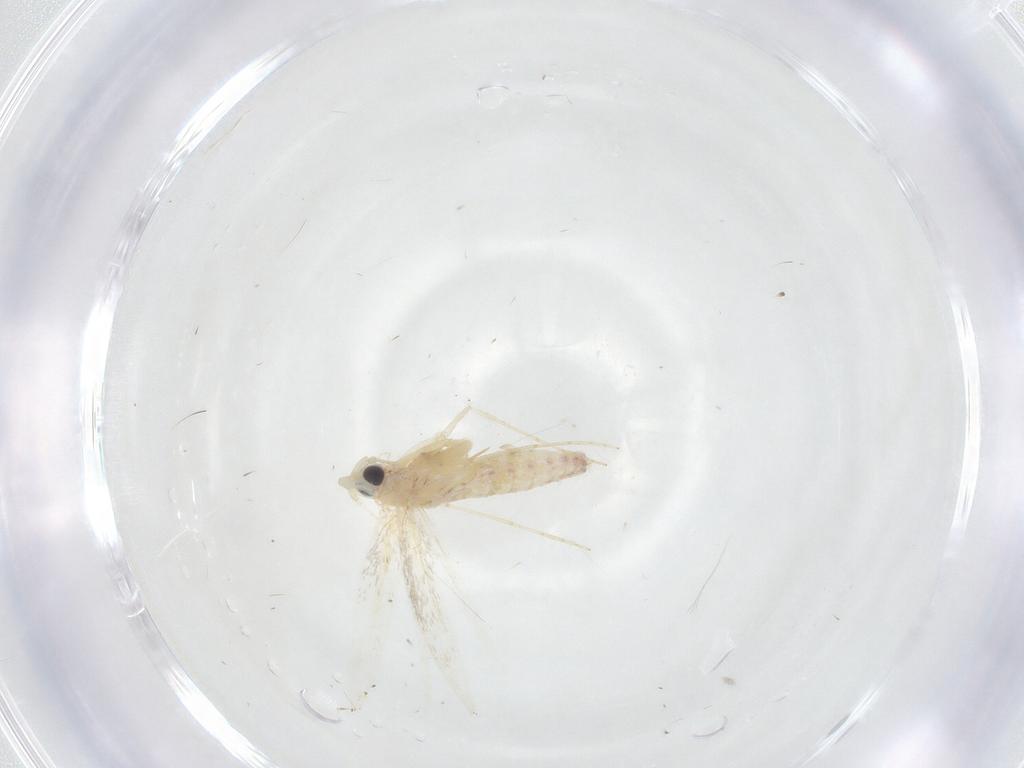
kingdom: Animalia
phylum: Arthropoda
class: Insecta
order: Lepidoptera
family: Tineidae
